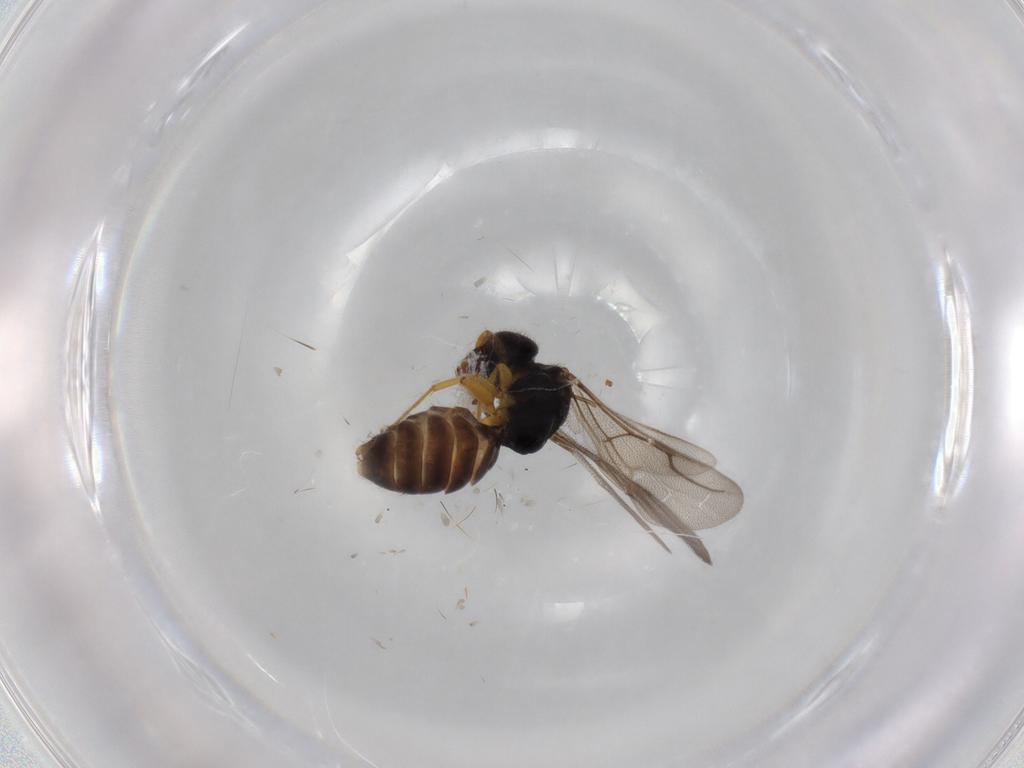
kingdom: Animalia
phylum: Arthropoda
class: Insecta
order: Hymenoptera
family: Bethylidae
